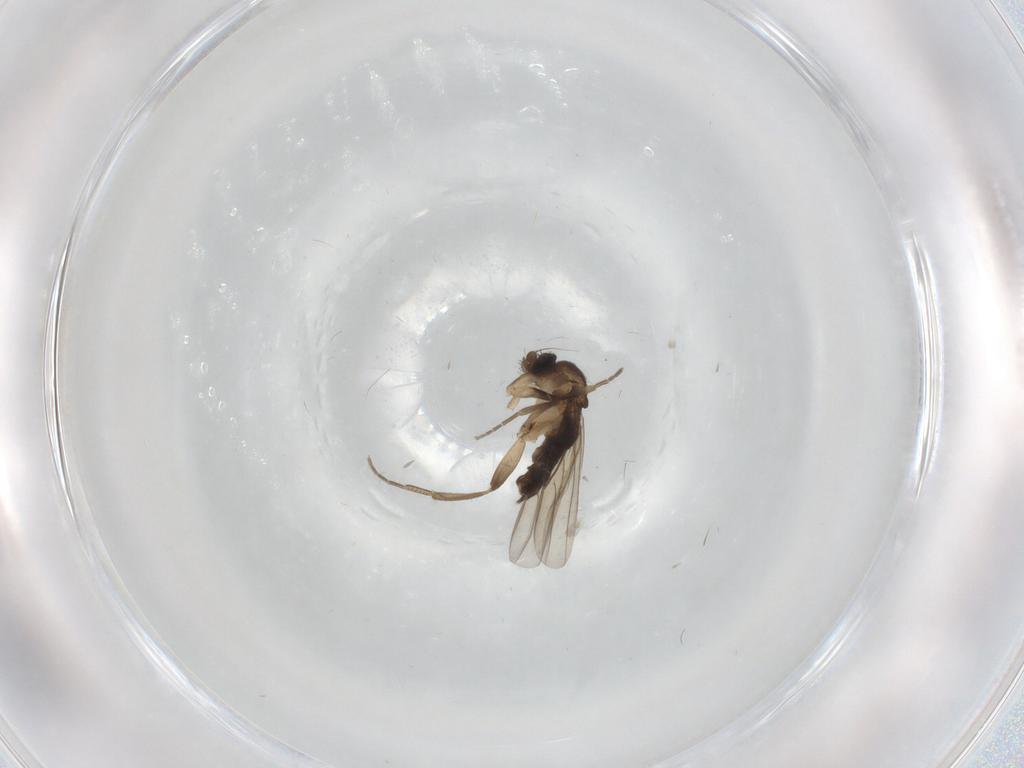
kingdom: Animalia
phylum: Arthropoda
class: Insecta
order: Diptera
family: Phoridae
